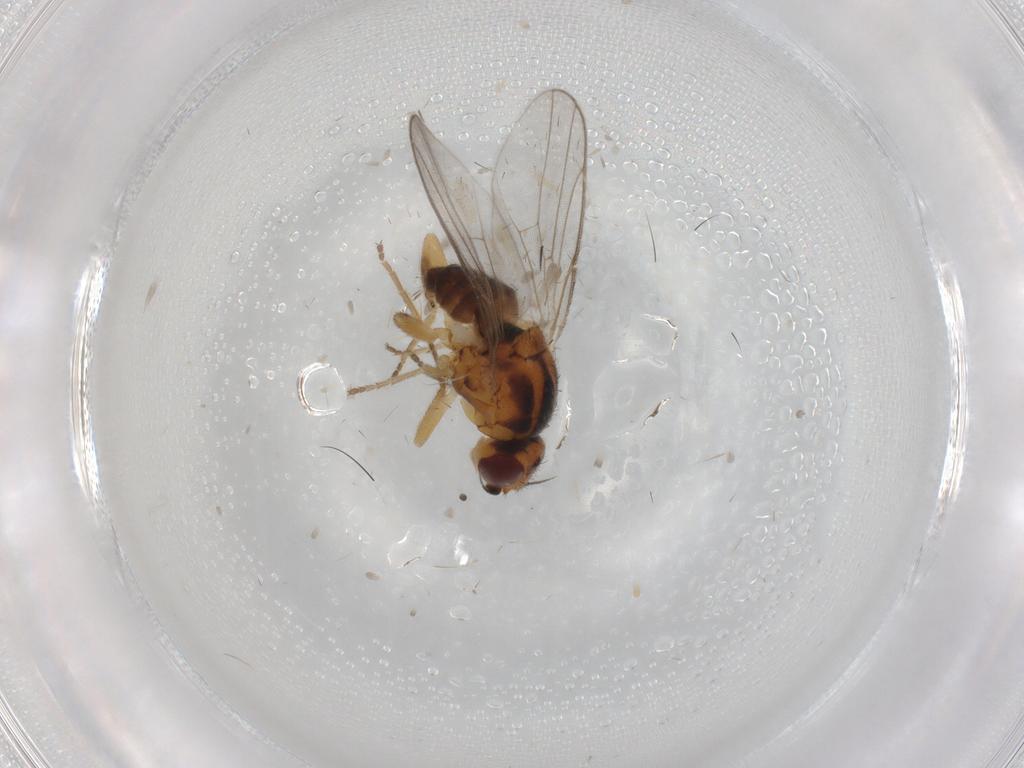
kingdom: Animalia
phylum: Arthropoda
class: Insecta
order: Diptera
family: Chloropidae
